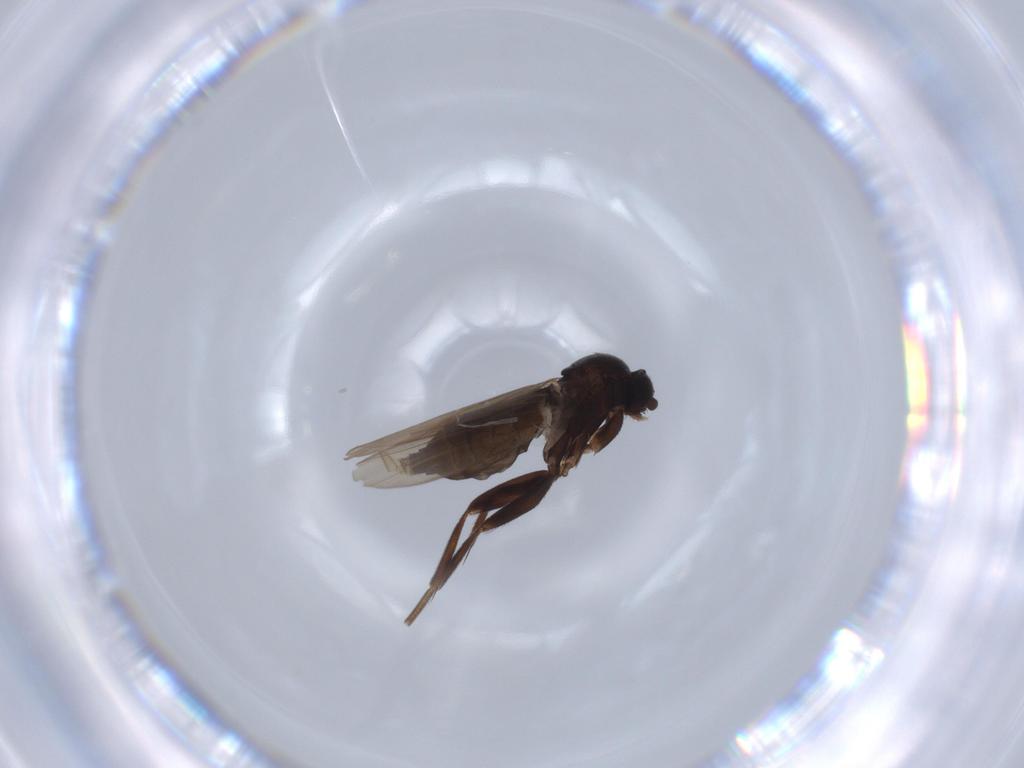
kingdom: Animalia
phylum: Arthropoda
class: Insecta
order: Diptera
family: Phoridae
